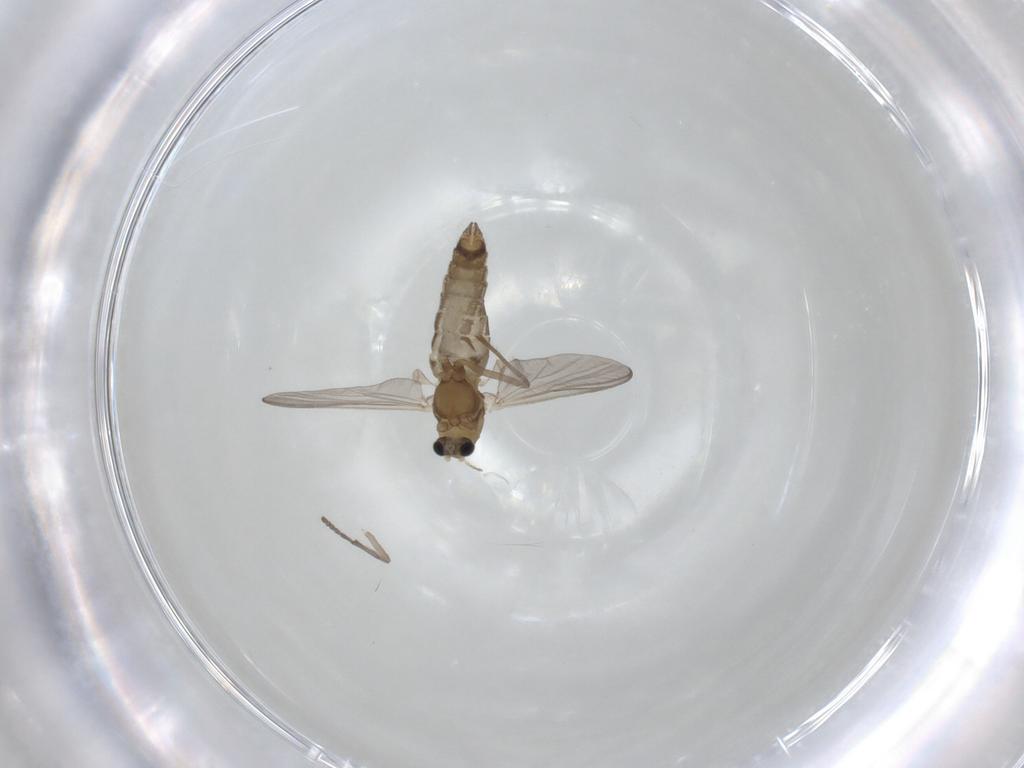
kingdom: Animalia
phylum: Arthropoda
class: Insecta
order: Diptera
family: Chironomidae
